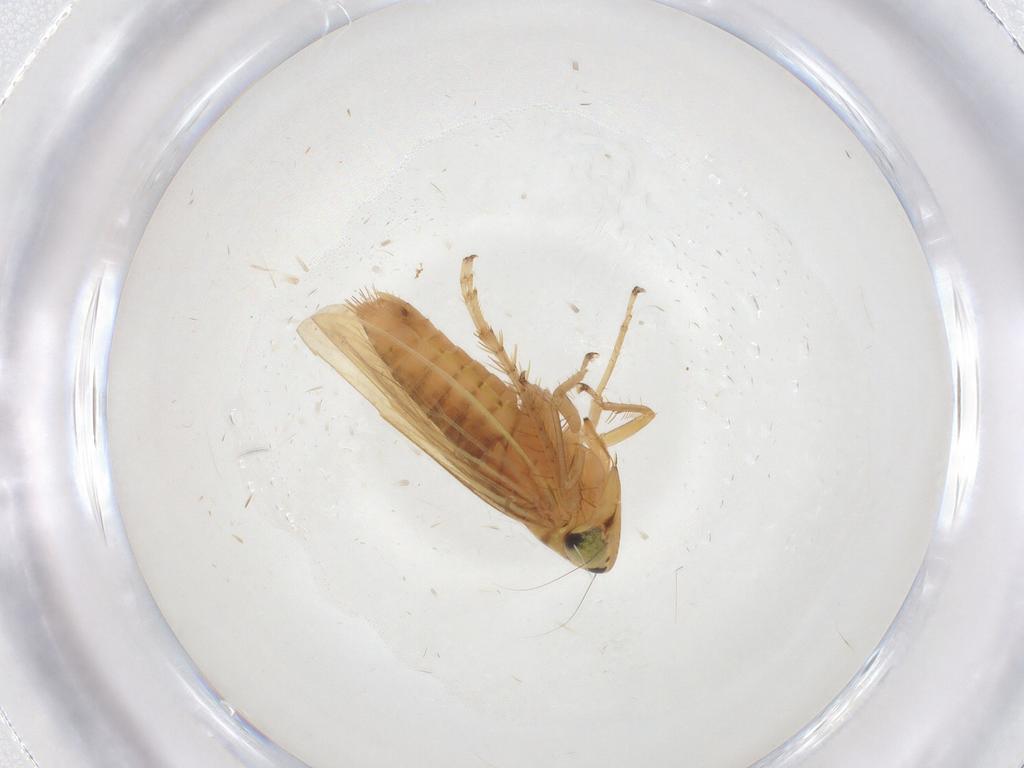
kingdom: Animalia
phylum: Arthropoda
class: Insecta
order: Hemiptera
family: Cicadellidae
